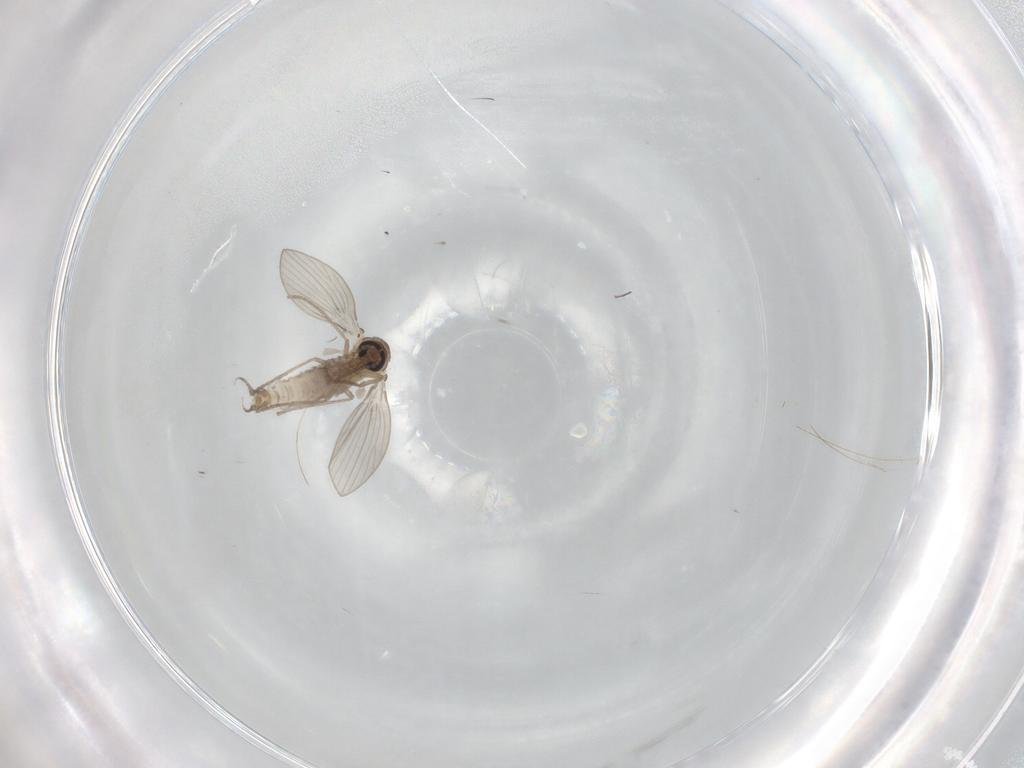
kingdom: Animalia
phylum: Arthropoda
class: Insecta
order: Diptera
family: Psychodidae
